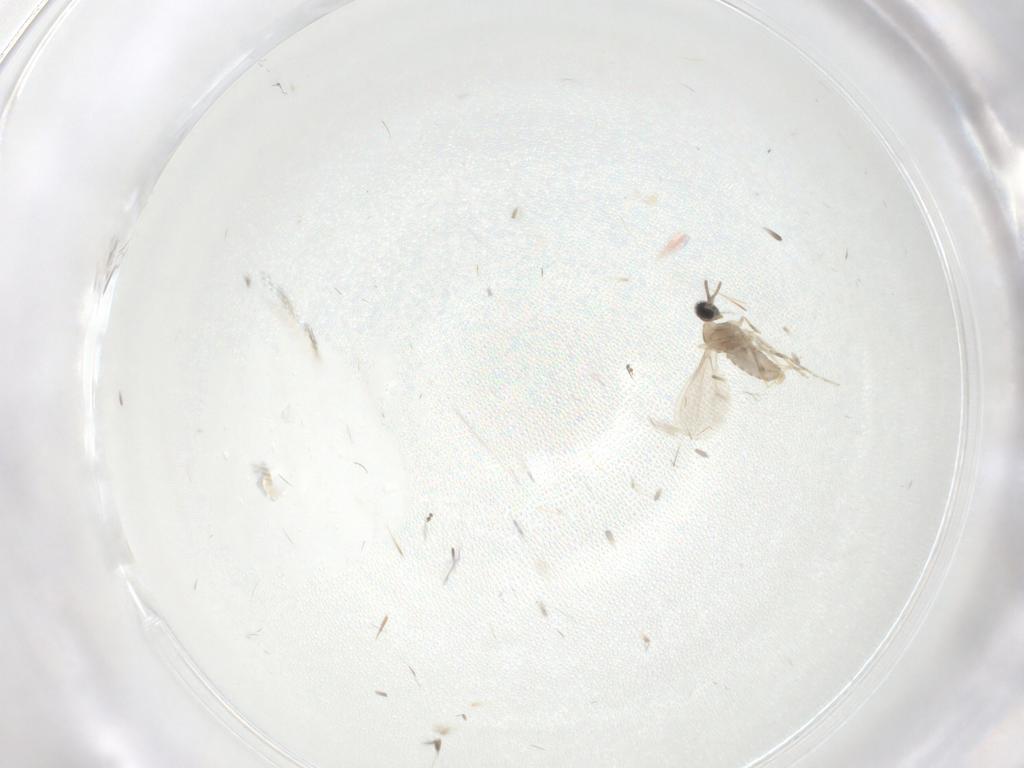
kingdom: Animalia
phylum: Arthropoda
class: Insecta
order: Diptera
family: Cecidomyiidae
